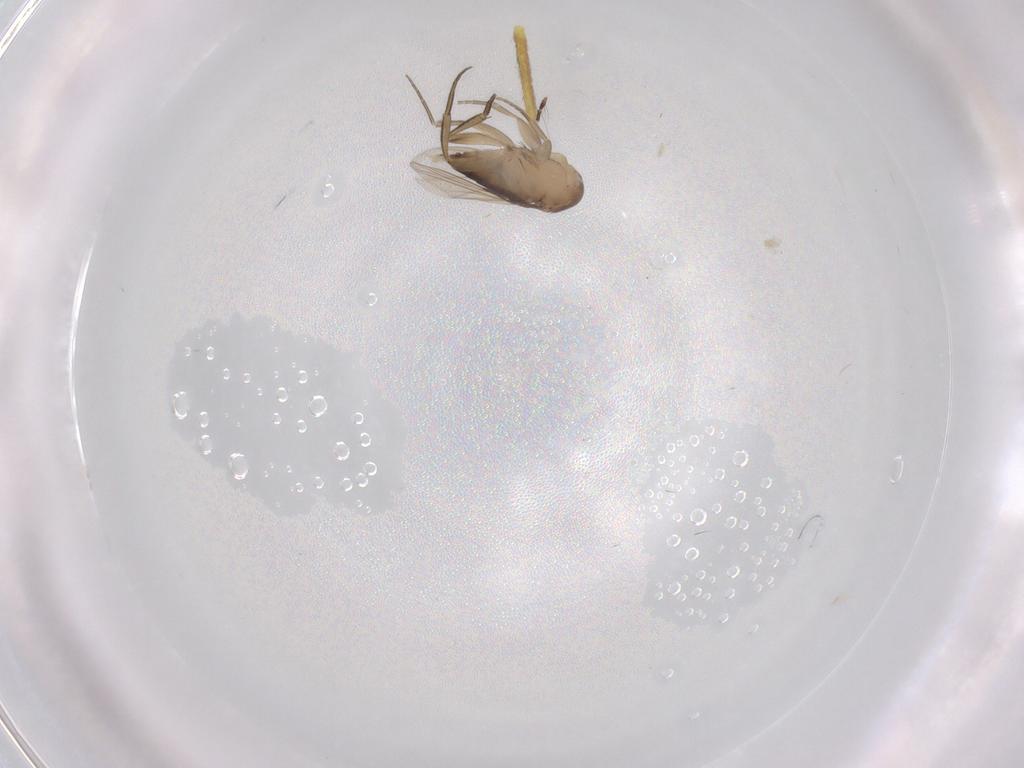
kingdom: Animalia
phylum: Arthropoda
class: Insecta
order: Diptera
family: Phoridae
